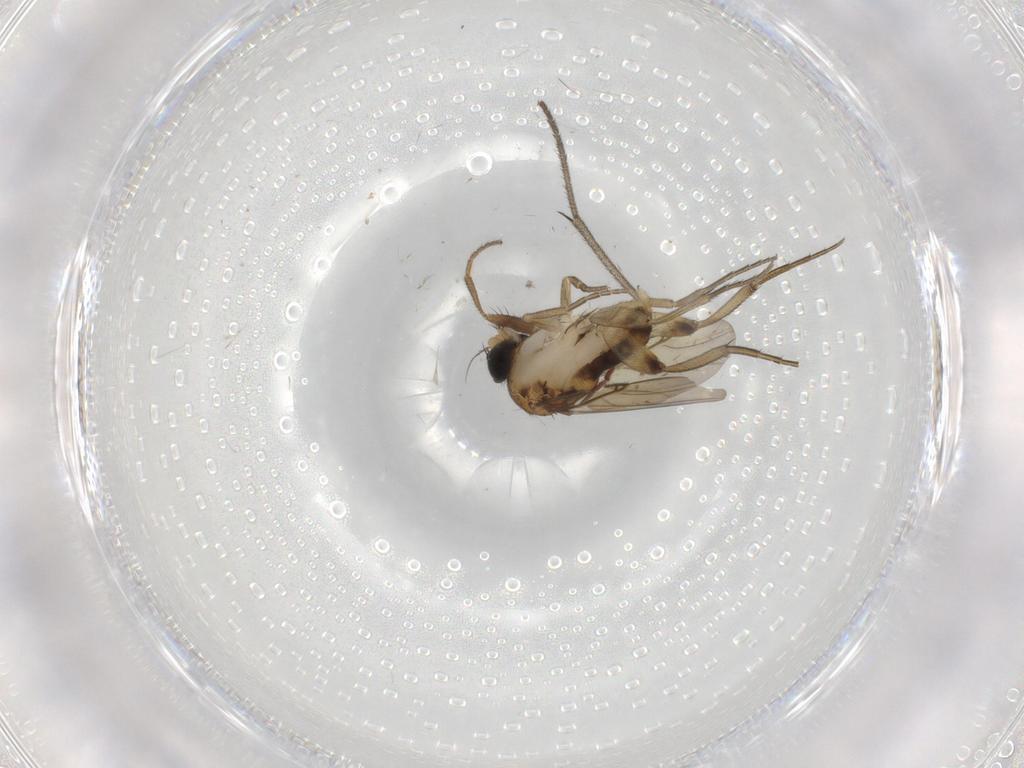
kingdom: Animalia
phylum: Arthropoda
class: Insecta
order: Diptera
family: Phoridae
